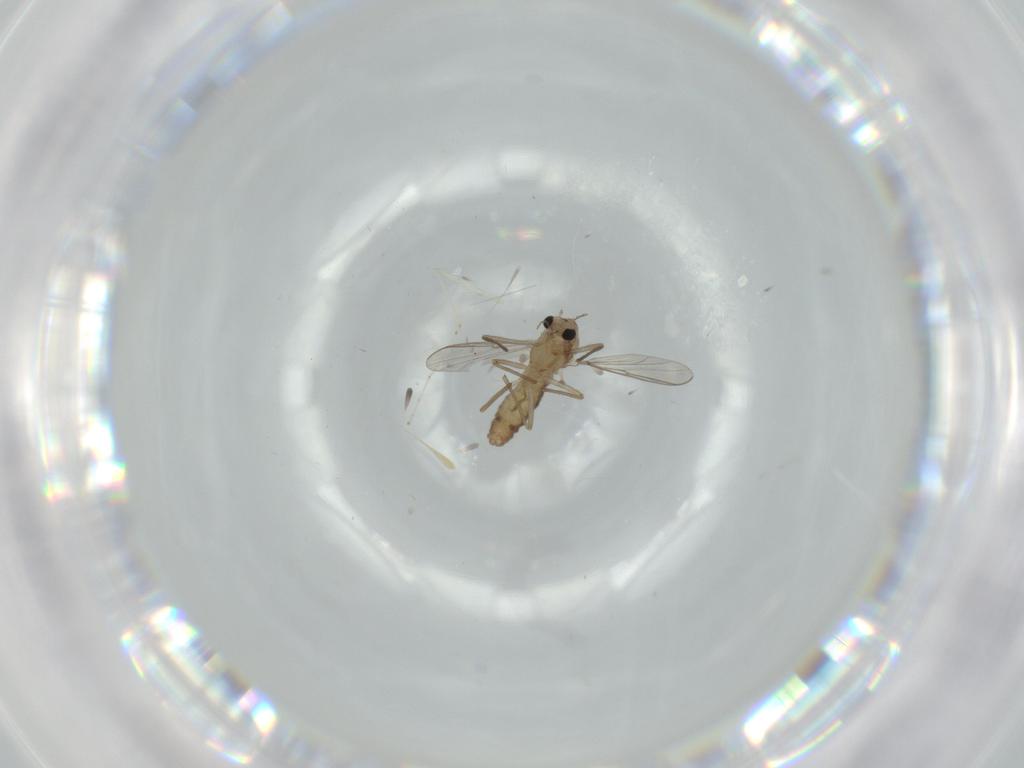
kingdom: Animalia
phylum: Arthropoda
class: Insecta
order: Diptera
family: Chironomidae
